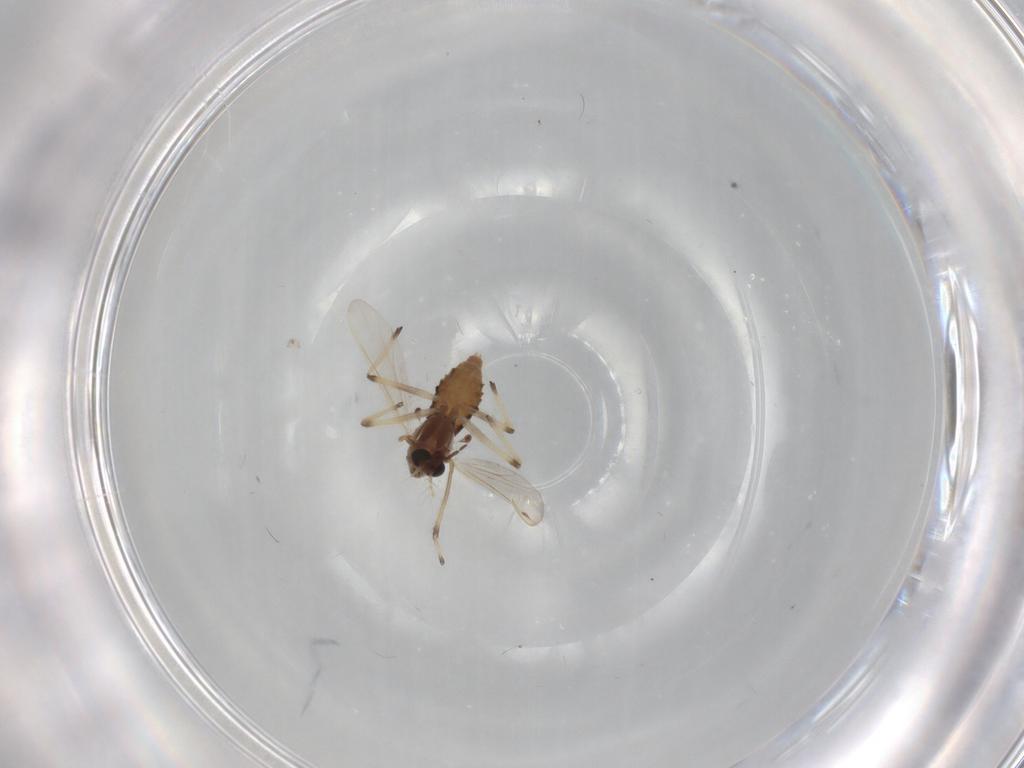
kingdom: Animalia
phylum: Arthropoda
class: Insecta
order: Diptera
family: Chironomidae
